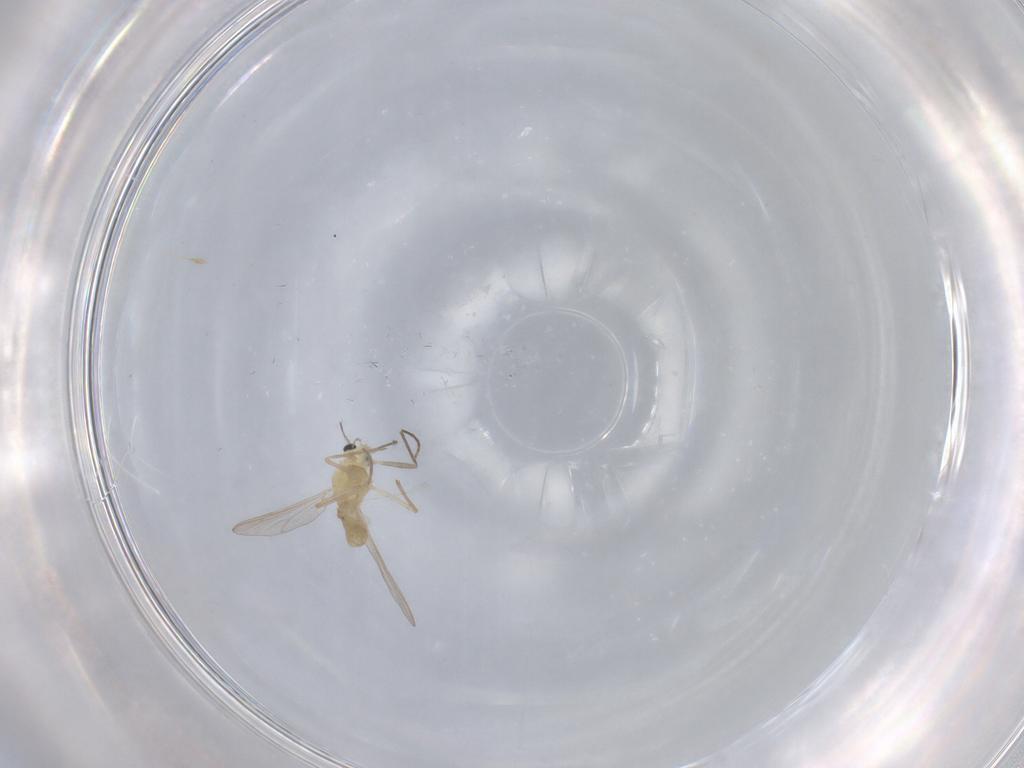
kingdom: Animalia
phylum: Arthropoda
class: Insecta
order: Diptera
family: Chironomidae
